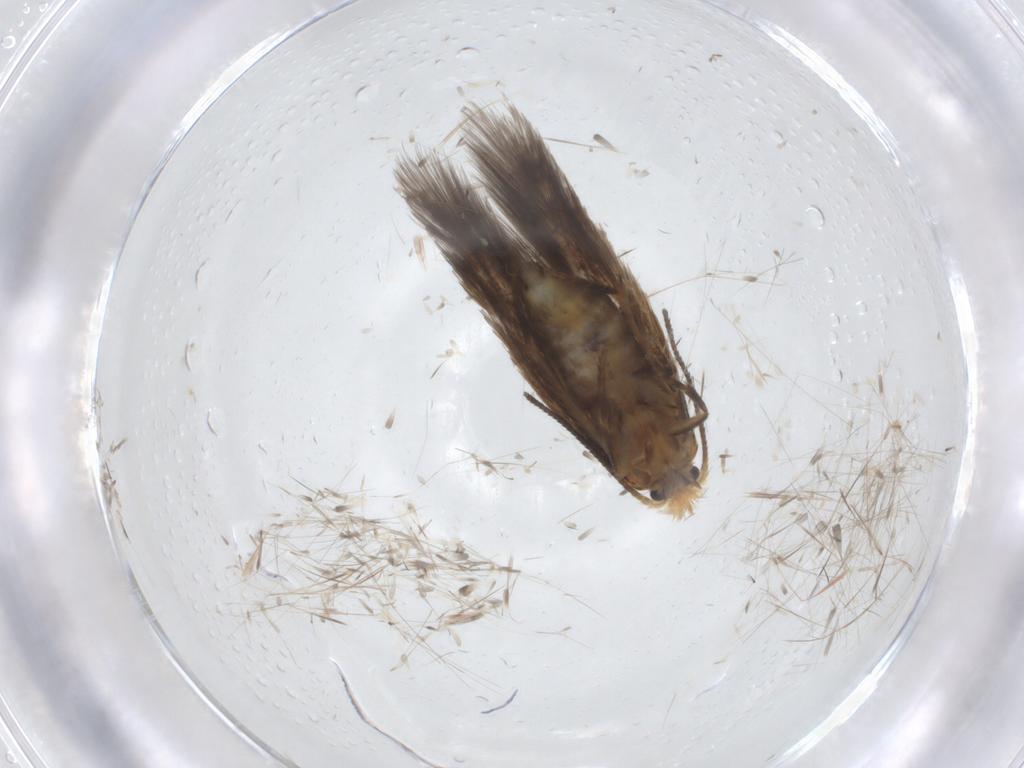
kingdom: Animalia
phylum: Arthropoda
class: Insecta
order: Lepidoptera
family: Nepticulidae
